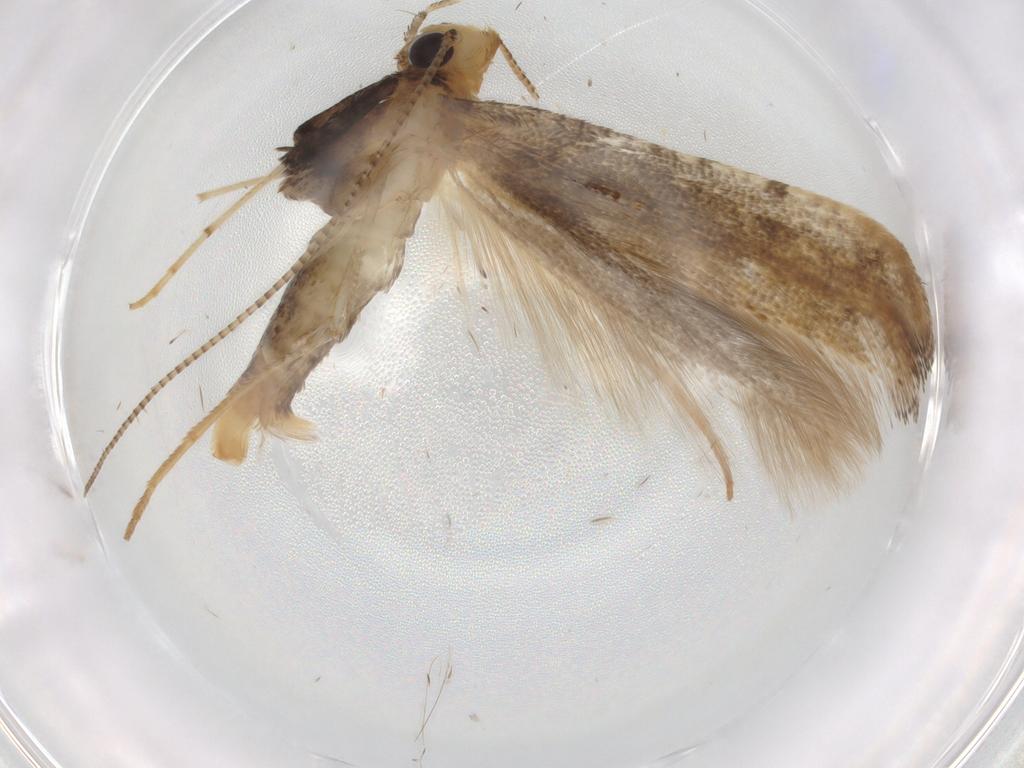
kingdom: Animalia
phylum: Arthropoda
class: Insecta
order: Lepidoptera
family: Gracillariidae
